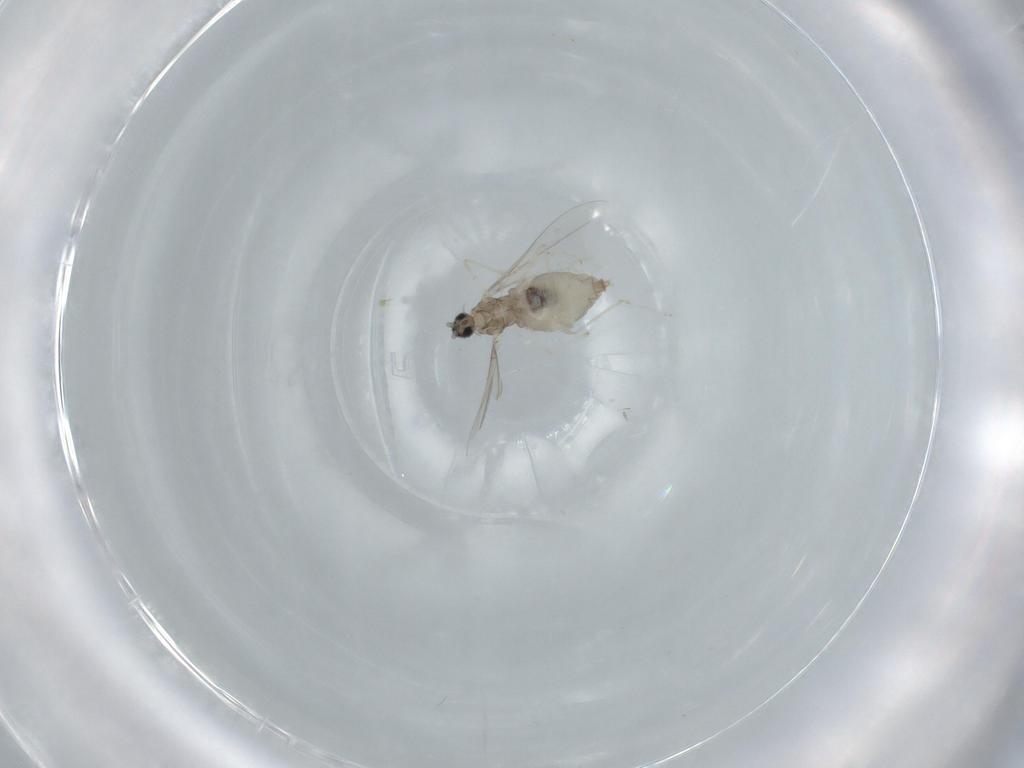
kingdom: Animalia
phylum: Arthropoda
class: Insecta
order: Diptera
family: Cecidomyiidae
